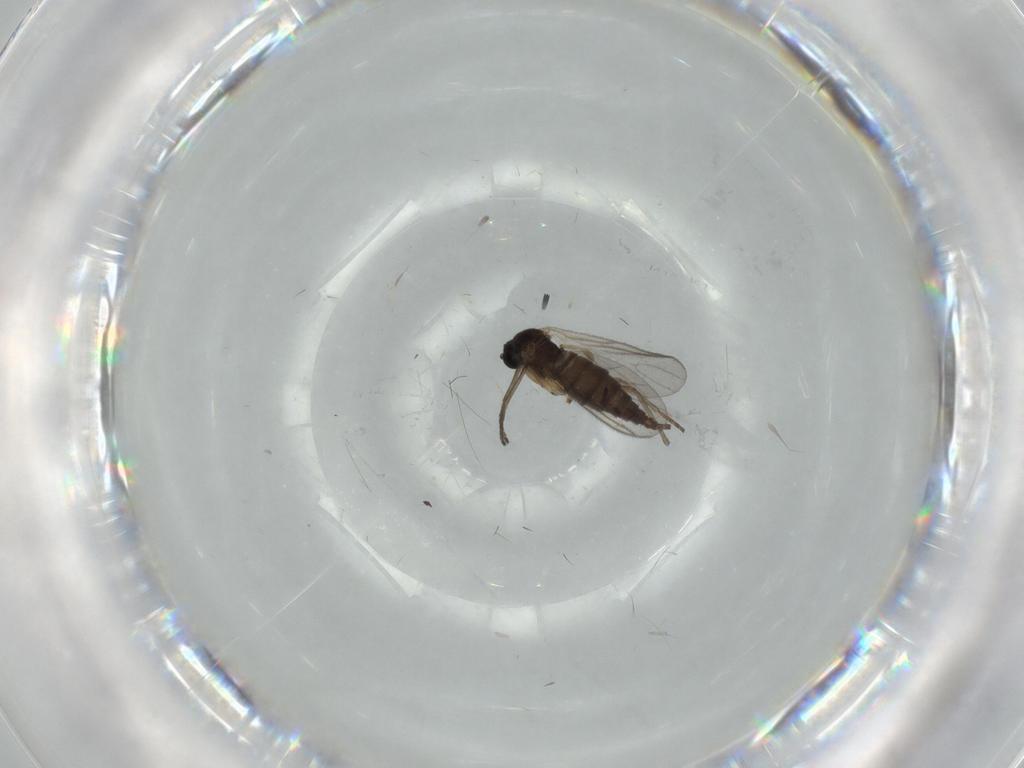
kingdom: Animalia
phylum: Arthropoda
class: Insecta
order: Diptera
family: Sciaridae
